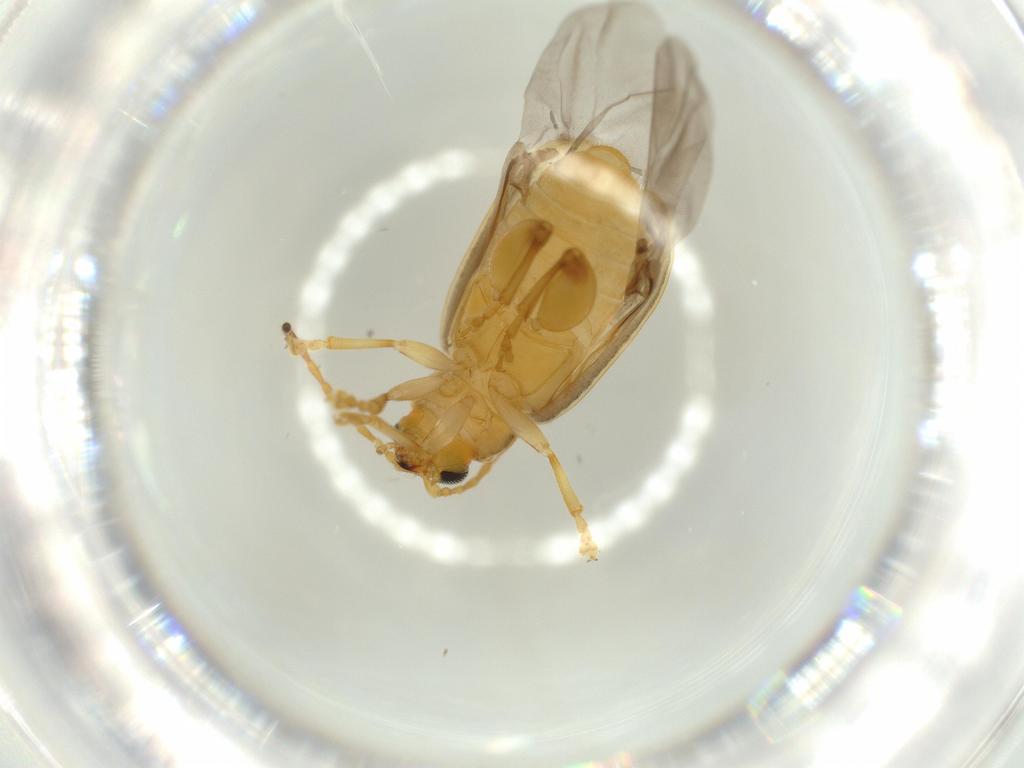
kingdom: Animalia
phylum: Arthropoda
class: Insecta
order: Coleoptera
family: Chrysomelidae
